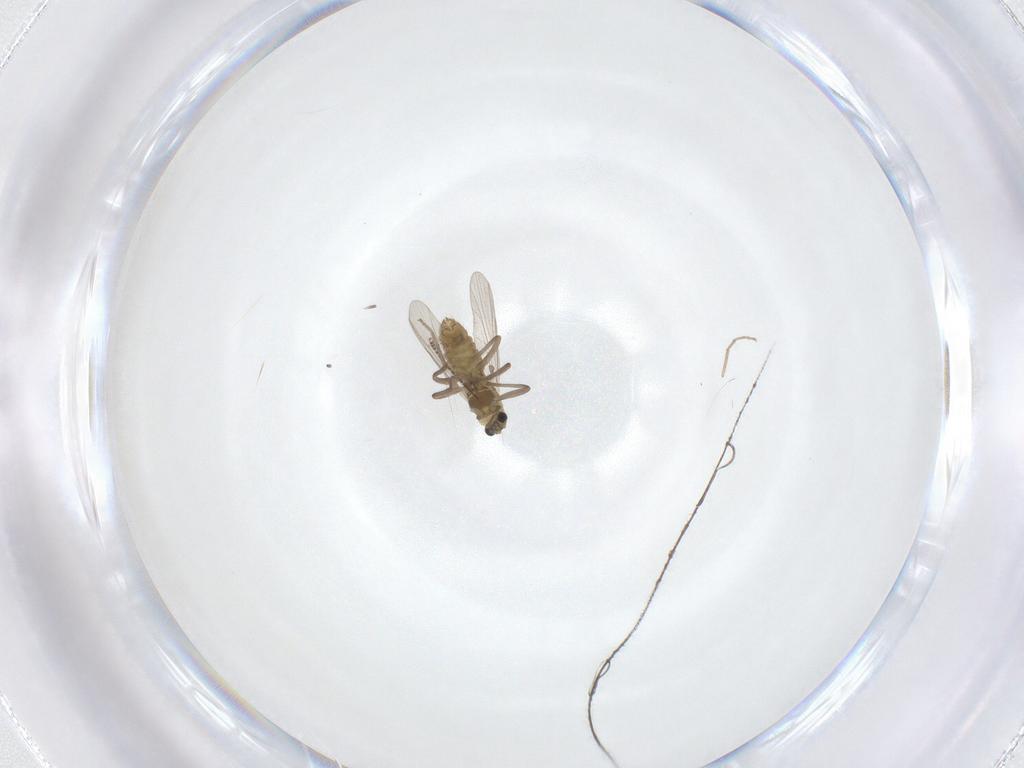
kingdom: Animalia
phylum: Arthropoda
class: Insecta
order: Diptera
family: Chironomidae
